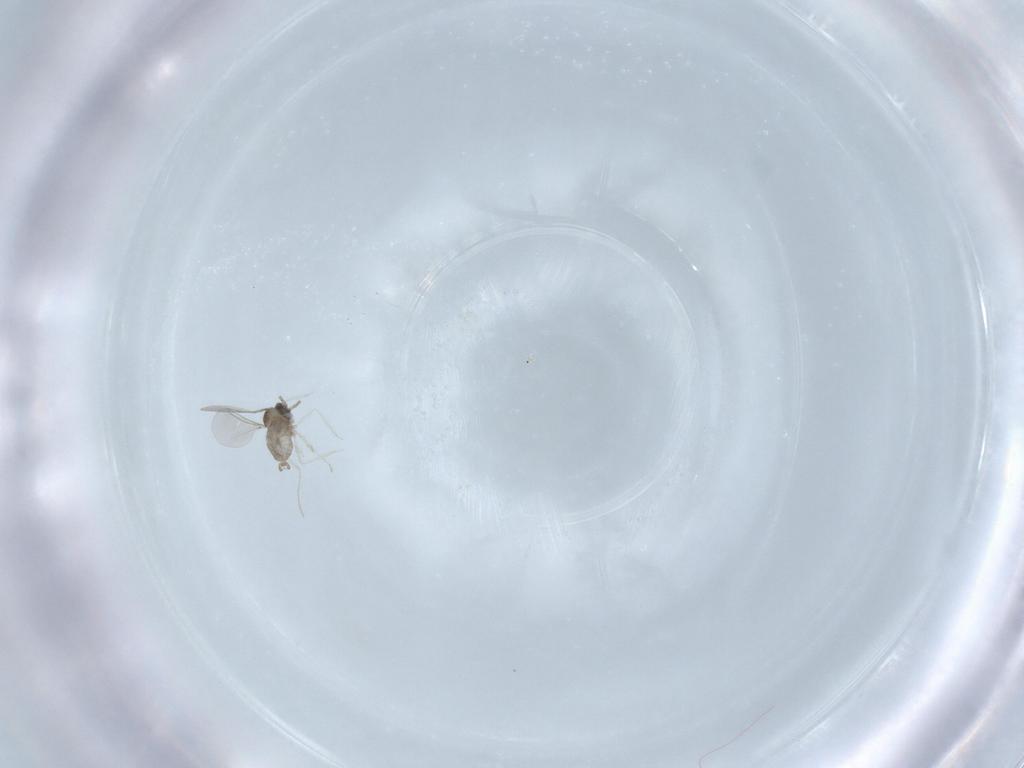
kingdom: Animalia
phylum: Arthropoda
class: Insecta
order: Diptera
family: Cecidomyiidae
